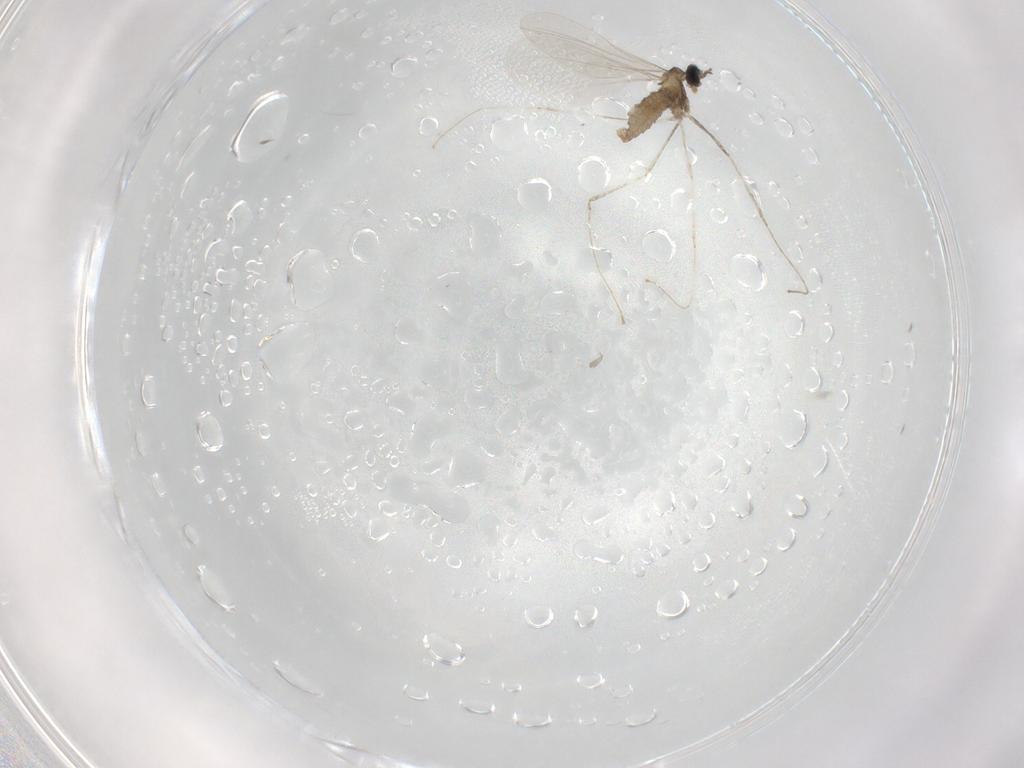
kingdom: Animalia
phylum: Arthropoda
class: Insecta
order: Diptera
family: Cecidomyiidae
